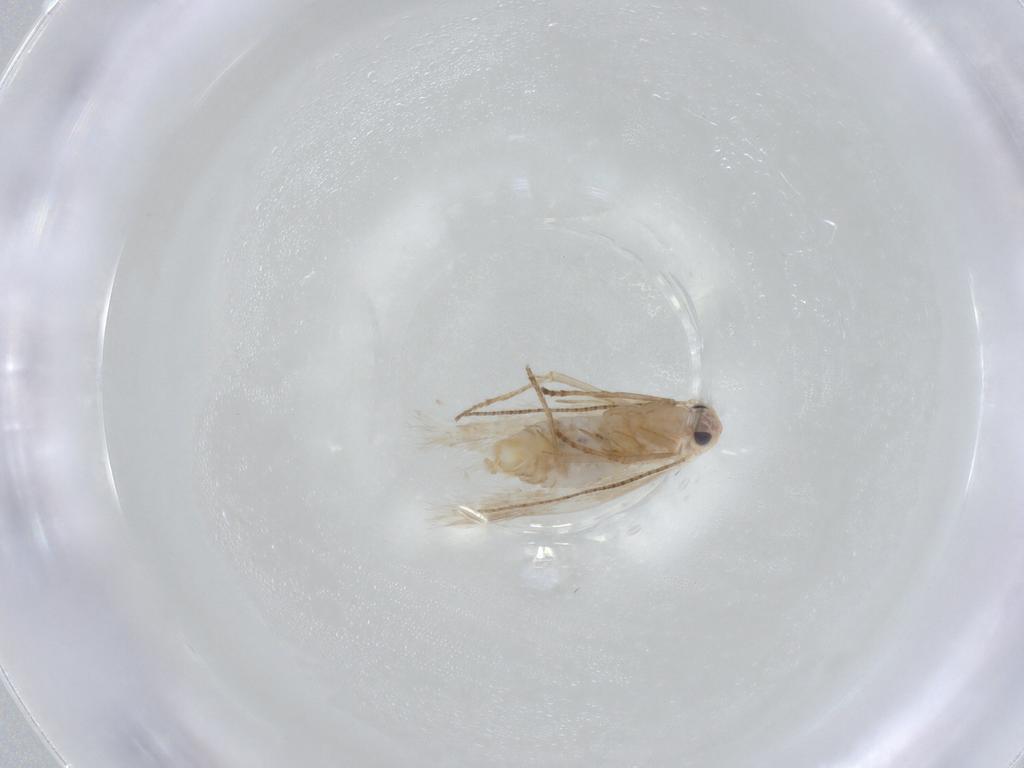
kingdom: Animalia
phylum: Arthropoda
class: Insecta
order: Lepidoptera
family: Bucculatricidae
